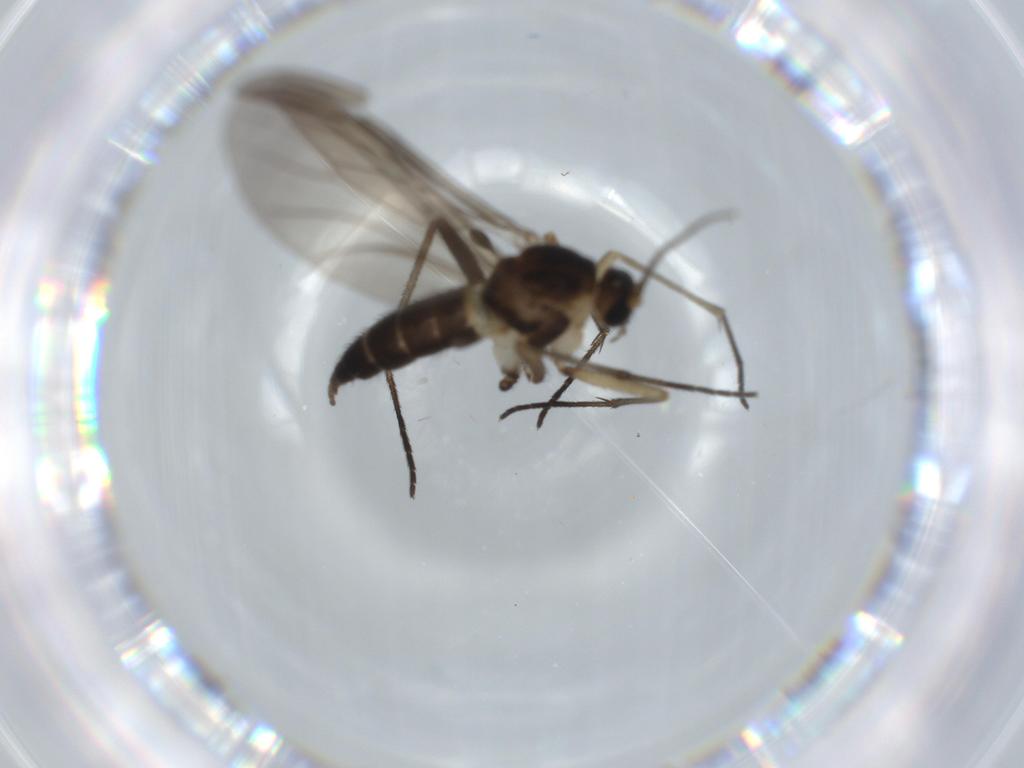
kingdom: Animalia
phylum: Arthropoda
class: Insecta
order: Diptera
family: Sciaridae
